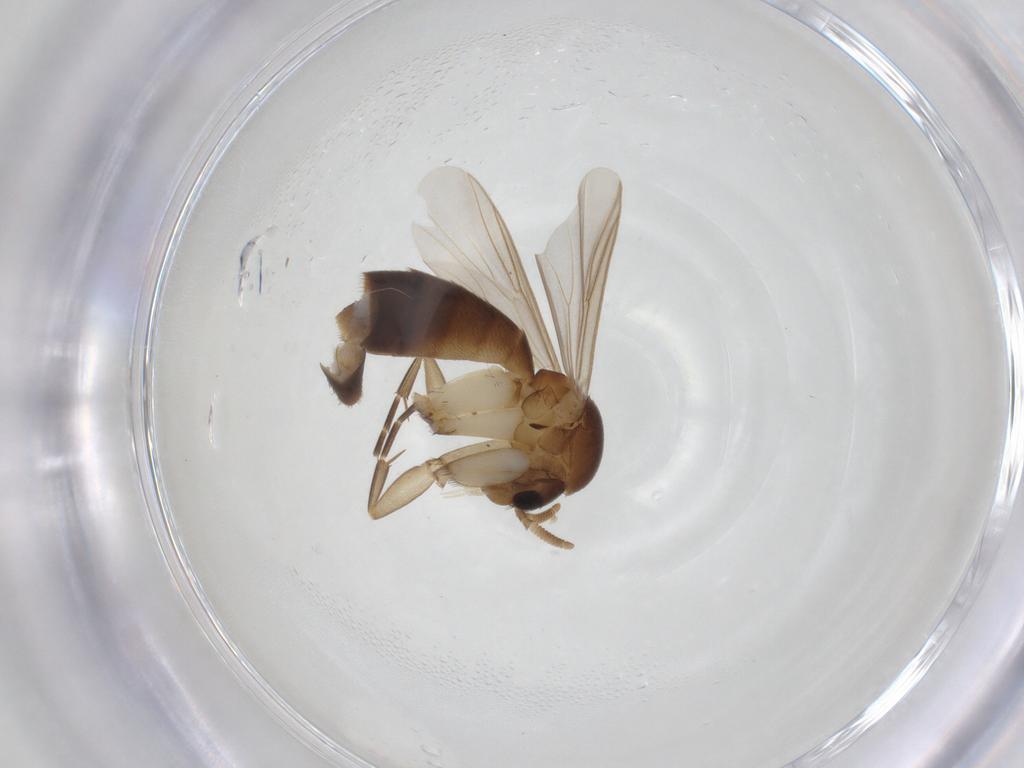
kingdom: Animalia
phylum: Arthropoda
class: Insecta
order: Diptera
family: Mycetophilidae
